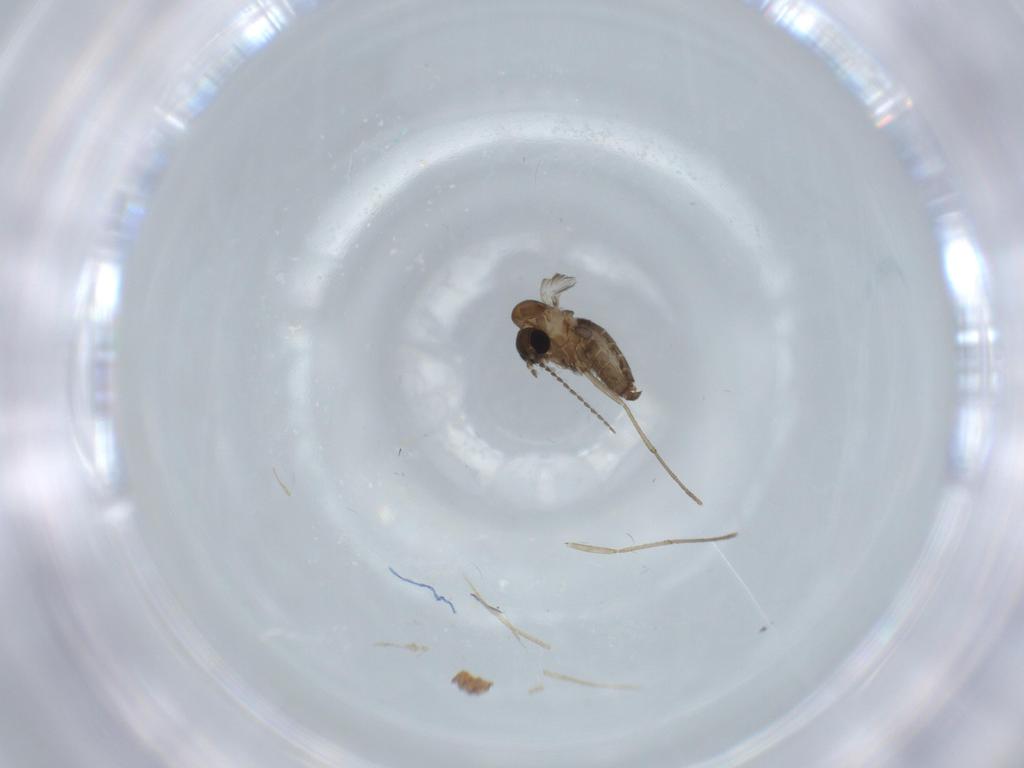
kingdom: Animalia
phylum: Arthropoda
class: Insecta
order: Diptera
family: Psychodidae
